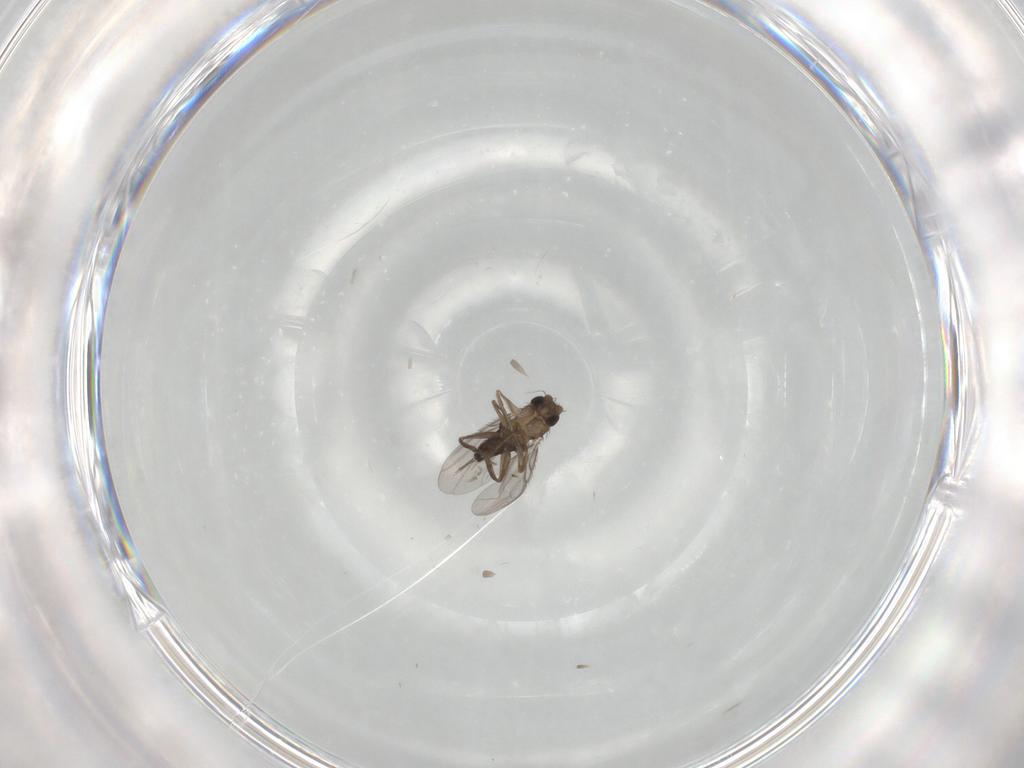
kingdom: Animalia
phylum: Arthropoda
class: Insecta
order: Diptera
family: Phoridae
